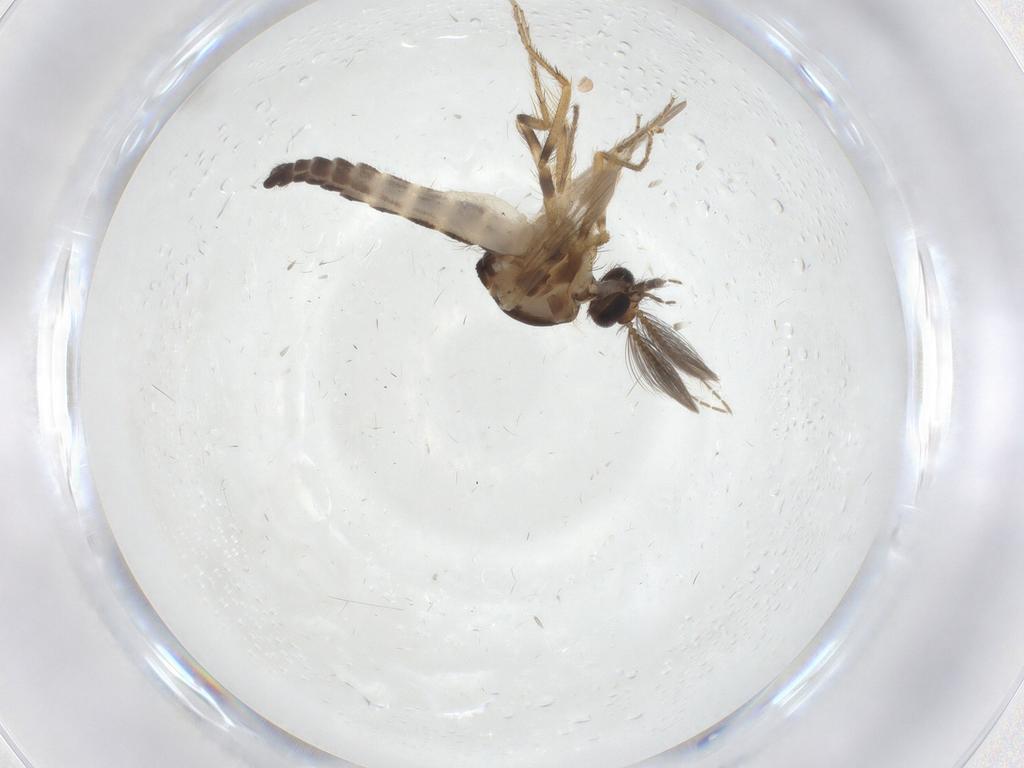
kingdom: Animalia
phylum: Arthropoda
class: Insecta
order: Diptera
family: Ceratopogonidae
